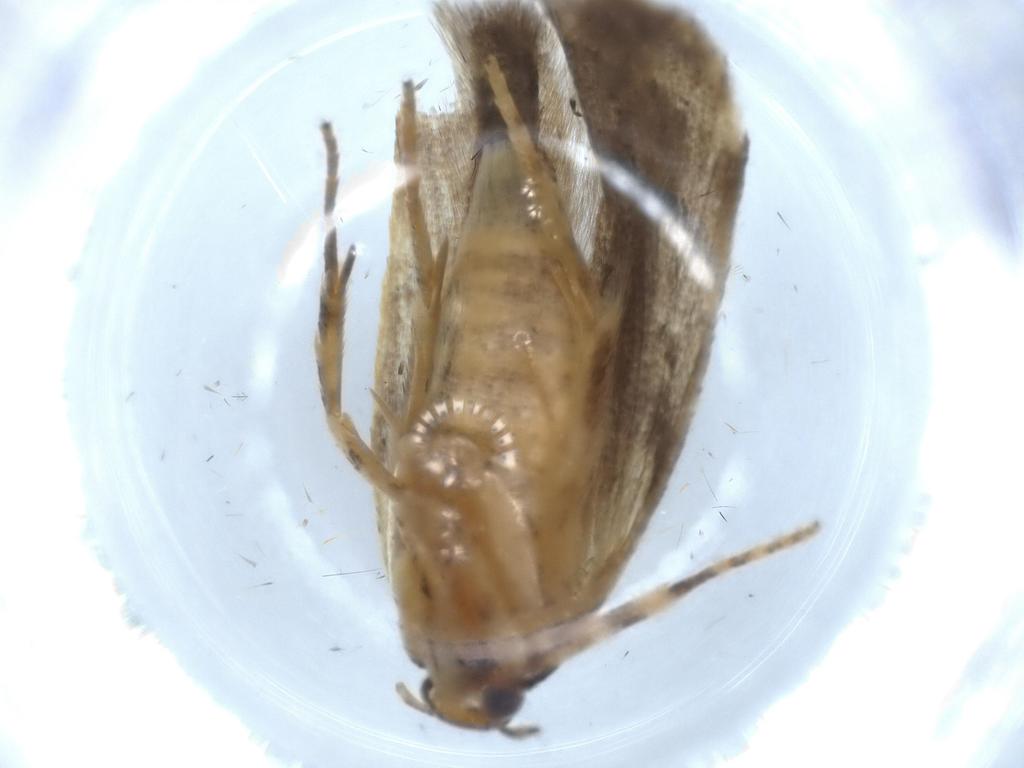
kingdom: Animalia
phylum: Arthropoda
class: Insecta
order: Lepidoptera
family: Gelechiidae
